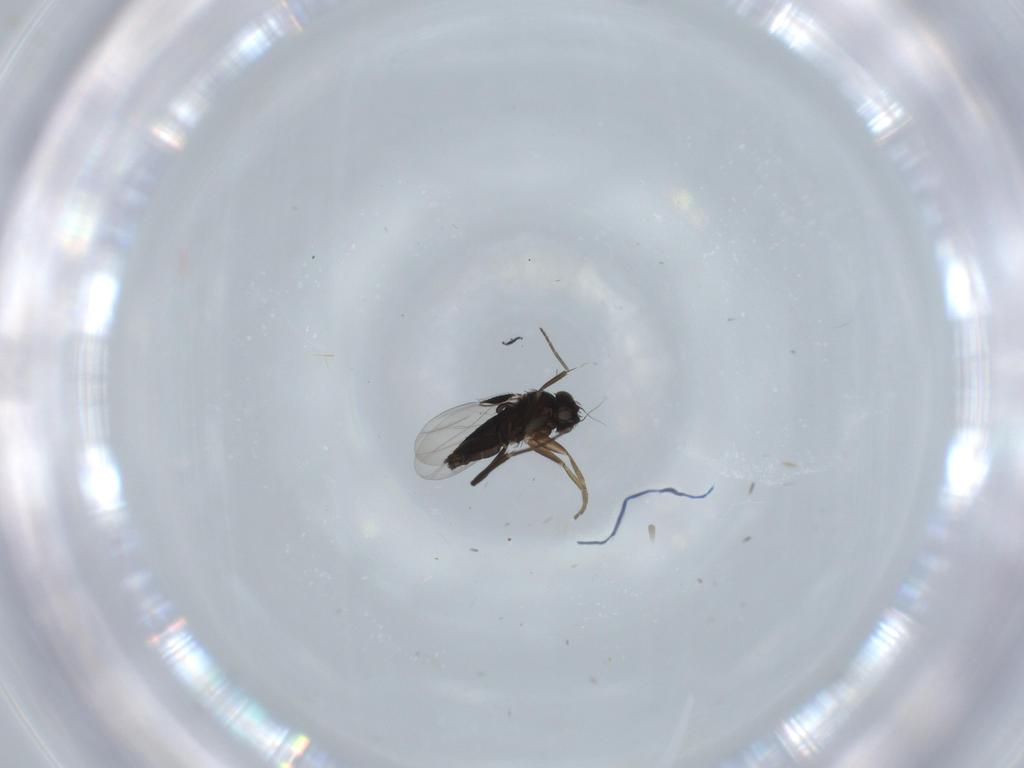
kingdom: Animalia
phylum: Arthropoda
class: Insecta
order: Diptera
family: Phoridae
